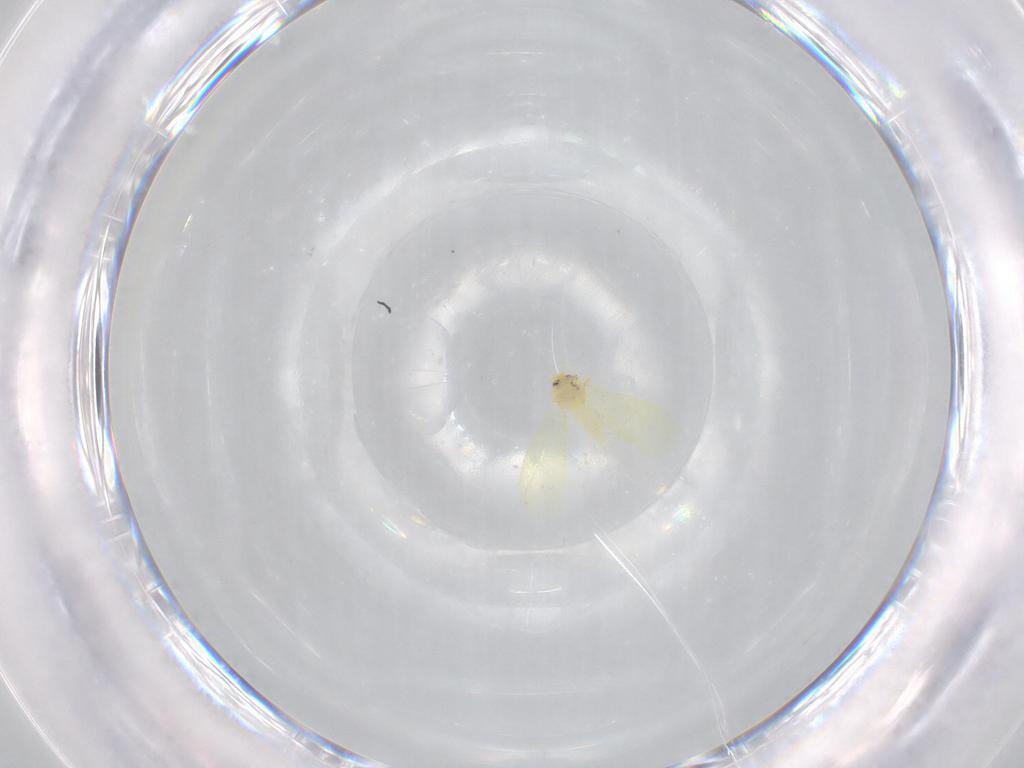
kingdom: Animalia
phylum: Arthropoda
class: Insecta
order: Hemiptera
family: Aleyrodidae
